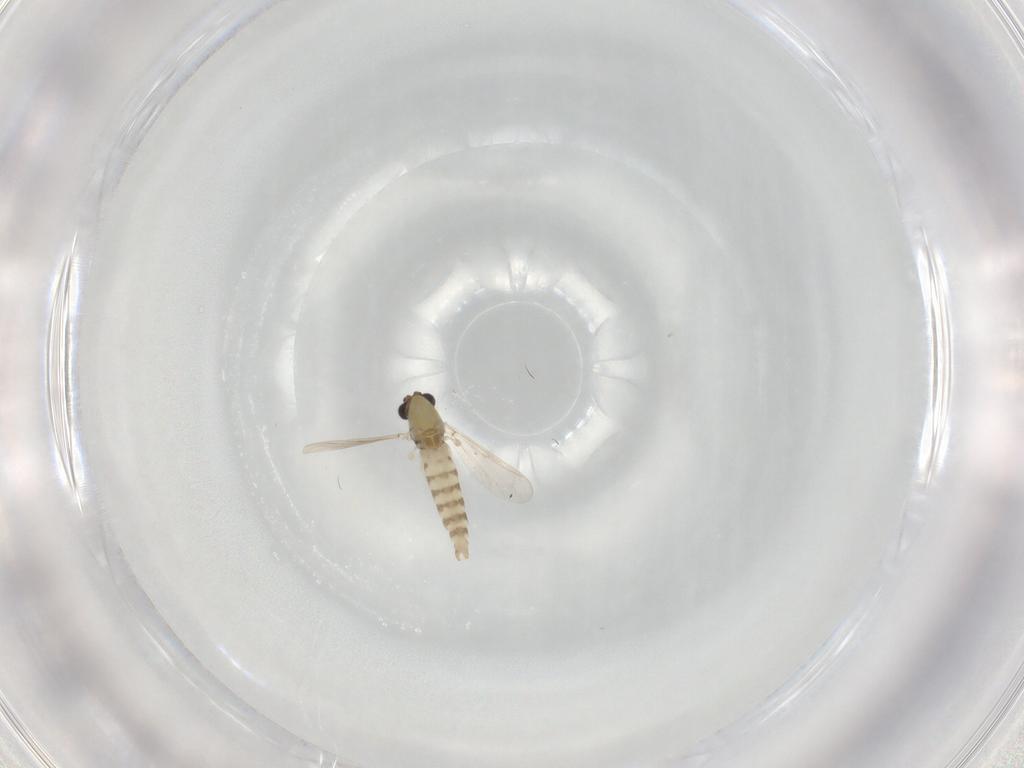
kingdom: Animalia
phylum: Arthropoda
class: Insecta
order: Diptera
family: Chironomidae
